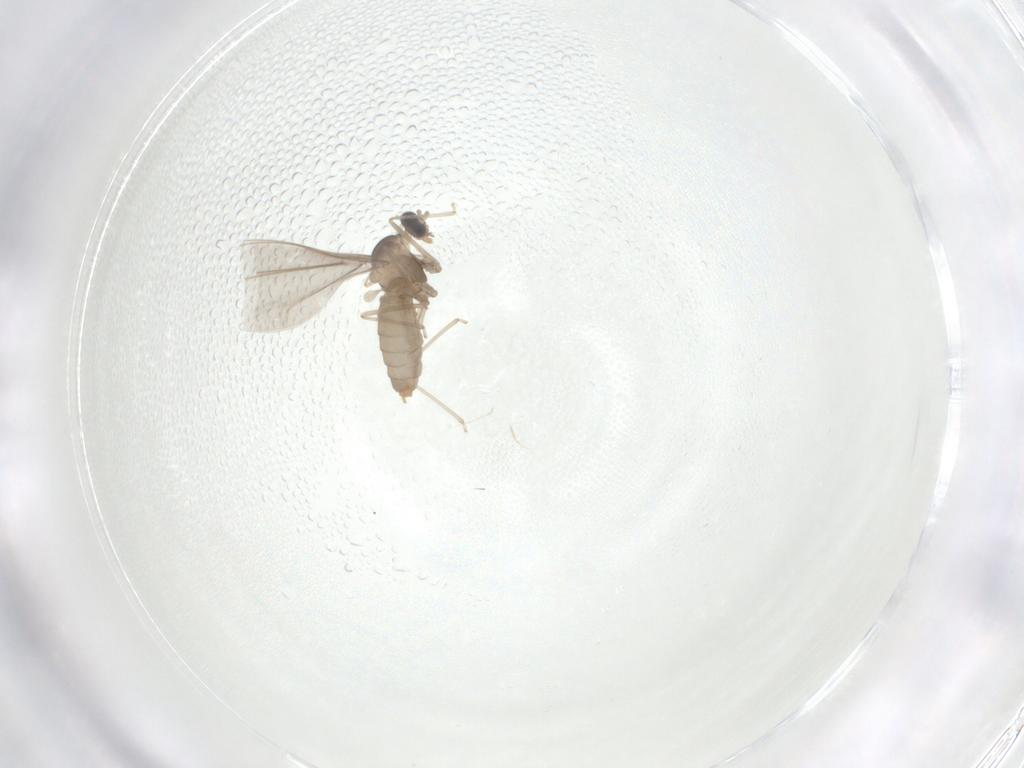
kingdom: Animalia
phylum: Arthropoda
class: Insecta
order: Diptera
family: Cecidomyiidae
